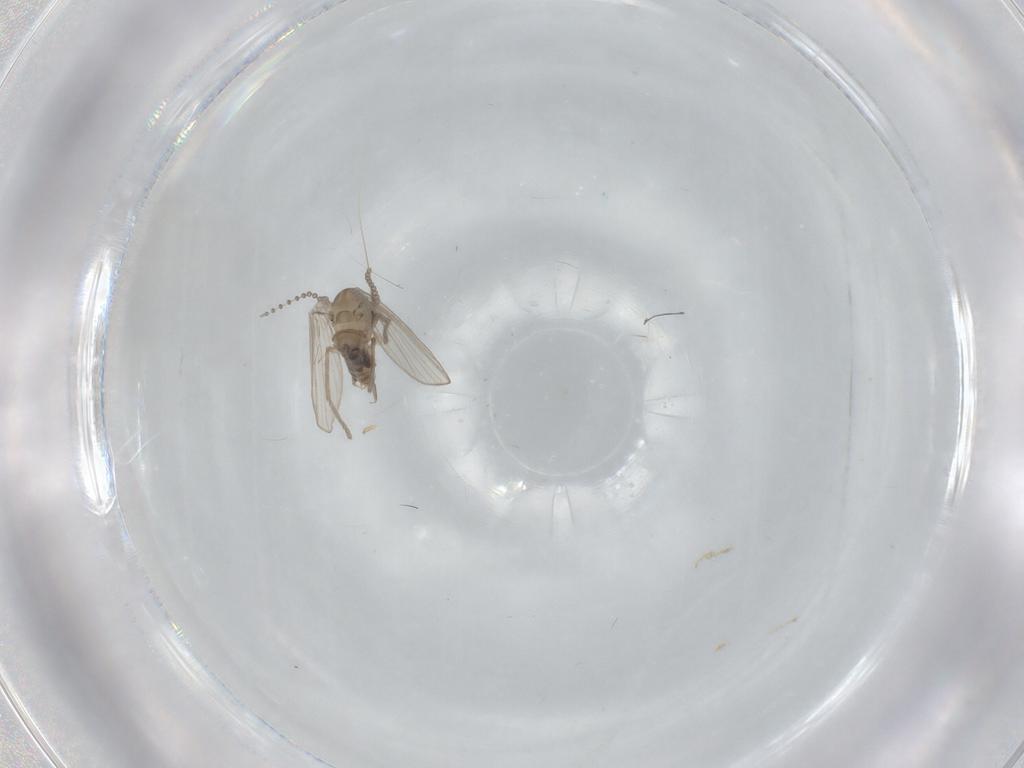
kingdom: Animalia
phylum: Arthropoda
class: Insecta
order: Diptera
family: Psychodidae
